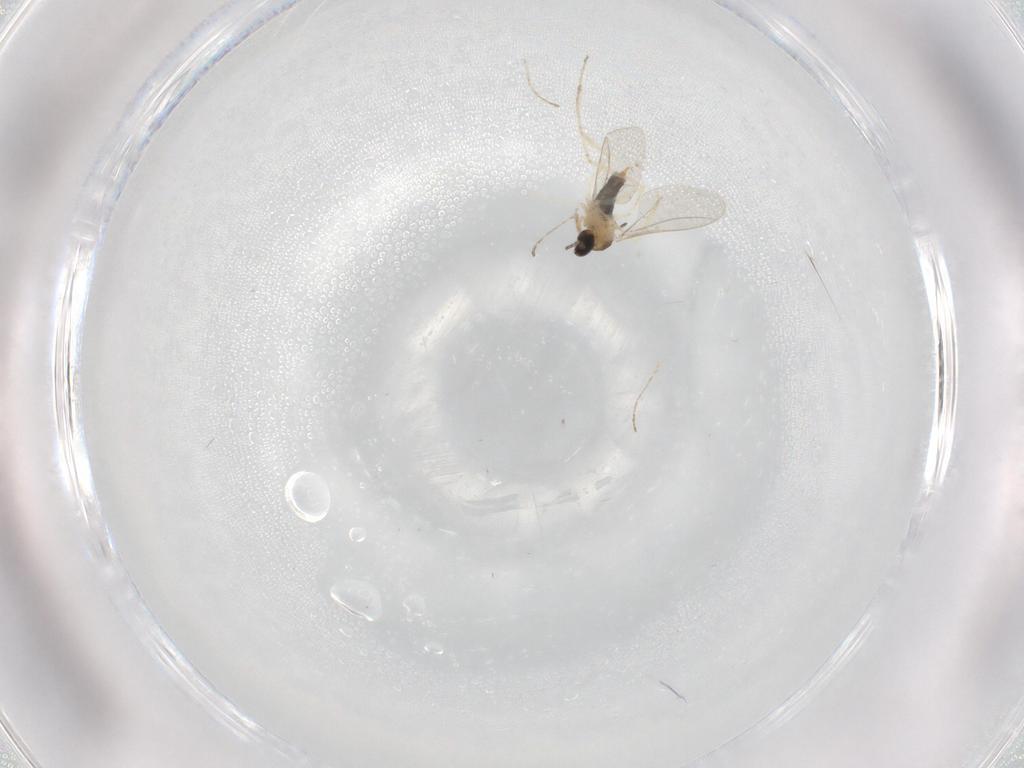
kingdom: Animalia
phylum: Arthropoda
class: Insecta
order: Diptera
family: Cecidomyiidae
